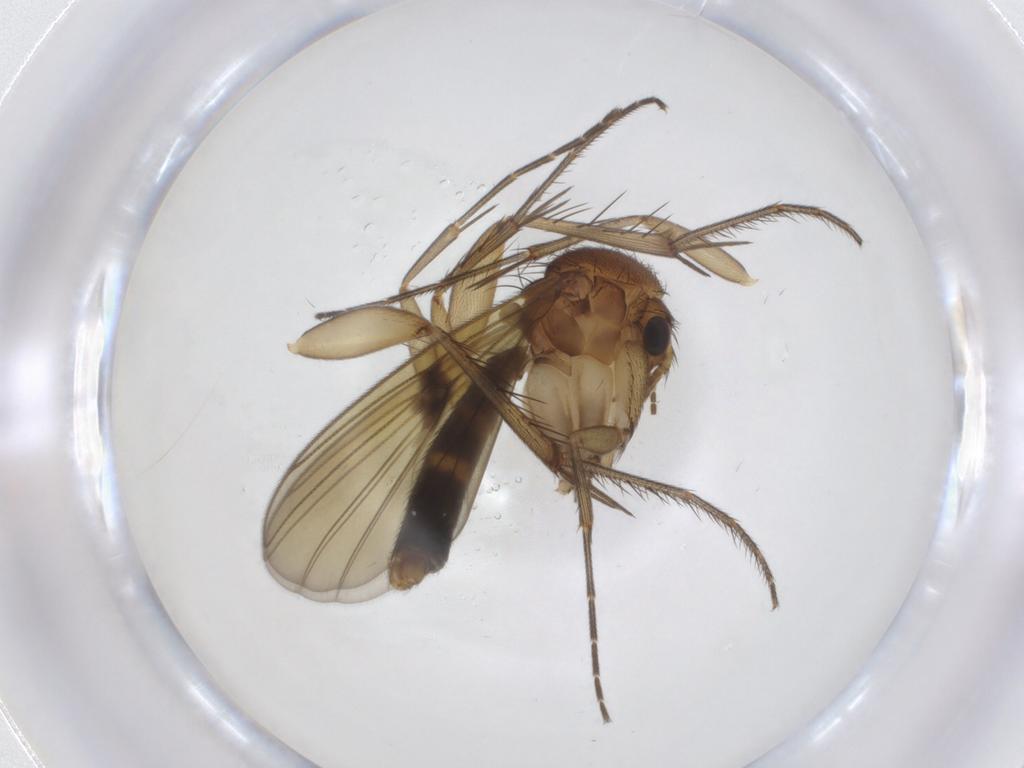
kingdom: Animalia
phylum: Arthropoda
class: Insecta
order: Diptera
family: Mycetophilidae
